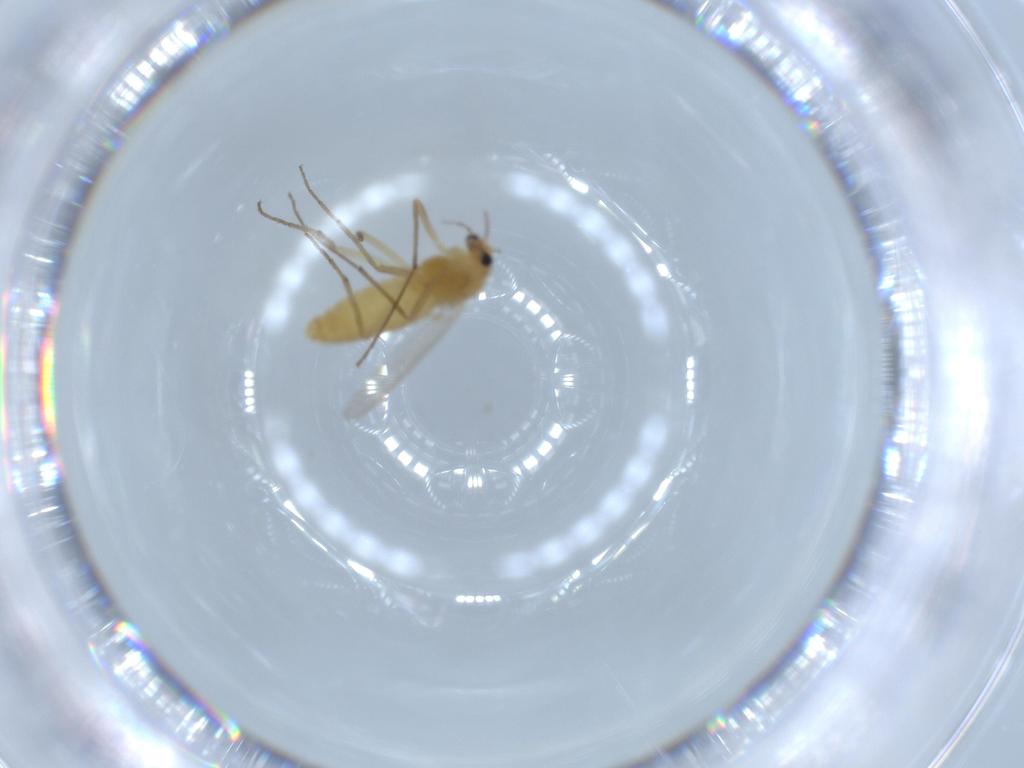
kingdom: Animalia
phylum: Arthropoda
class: Insecta
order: Diptera
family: Chironomidae
